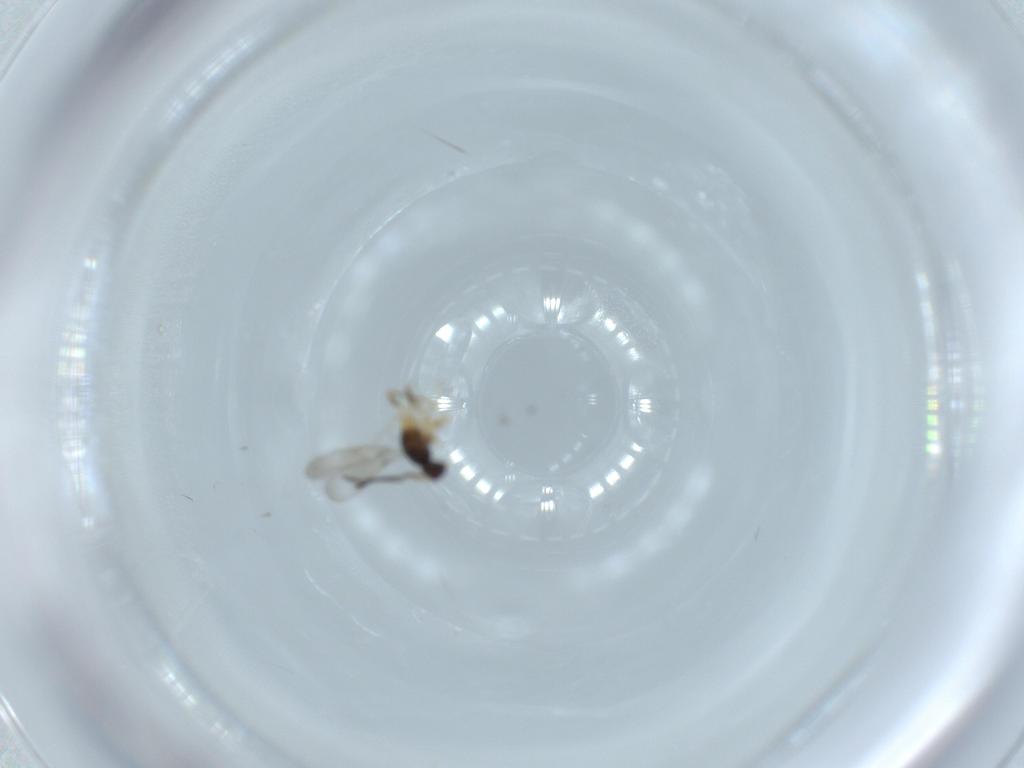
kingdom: Animalia
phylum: Arthropoda
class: Insecta
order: Hymenoptera
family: Mymaridae
